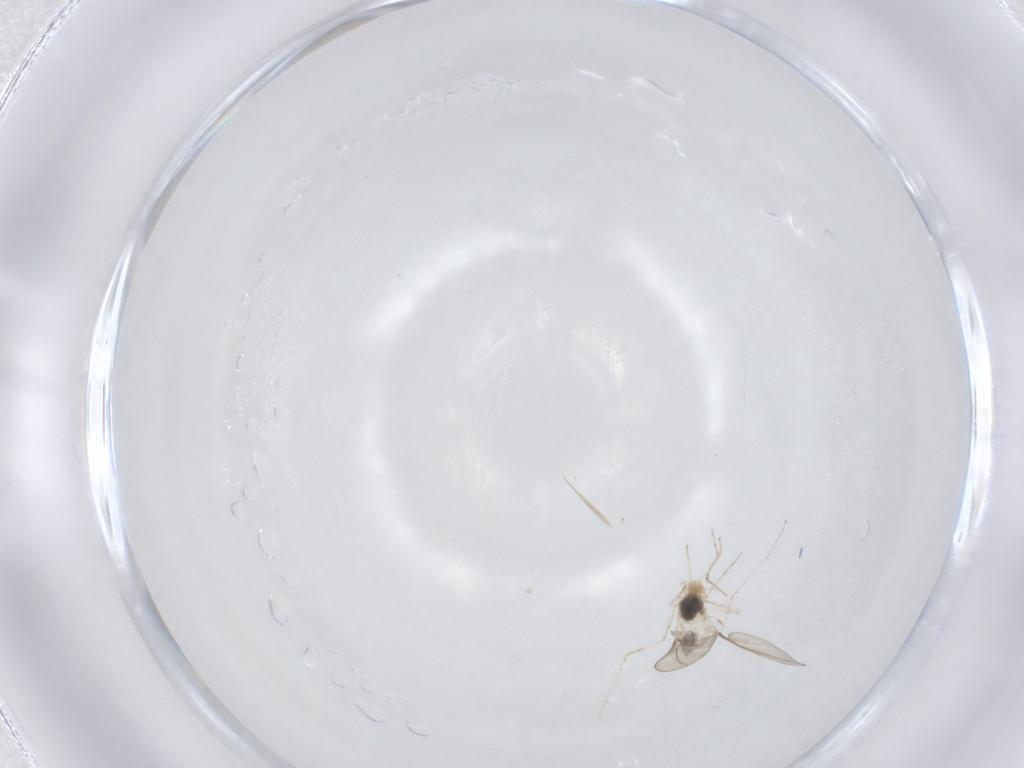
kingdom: Animalia
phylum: Arthropoda
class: Insecta
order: Diptera
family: Cecidomyiidae
